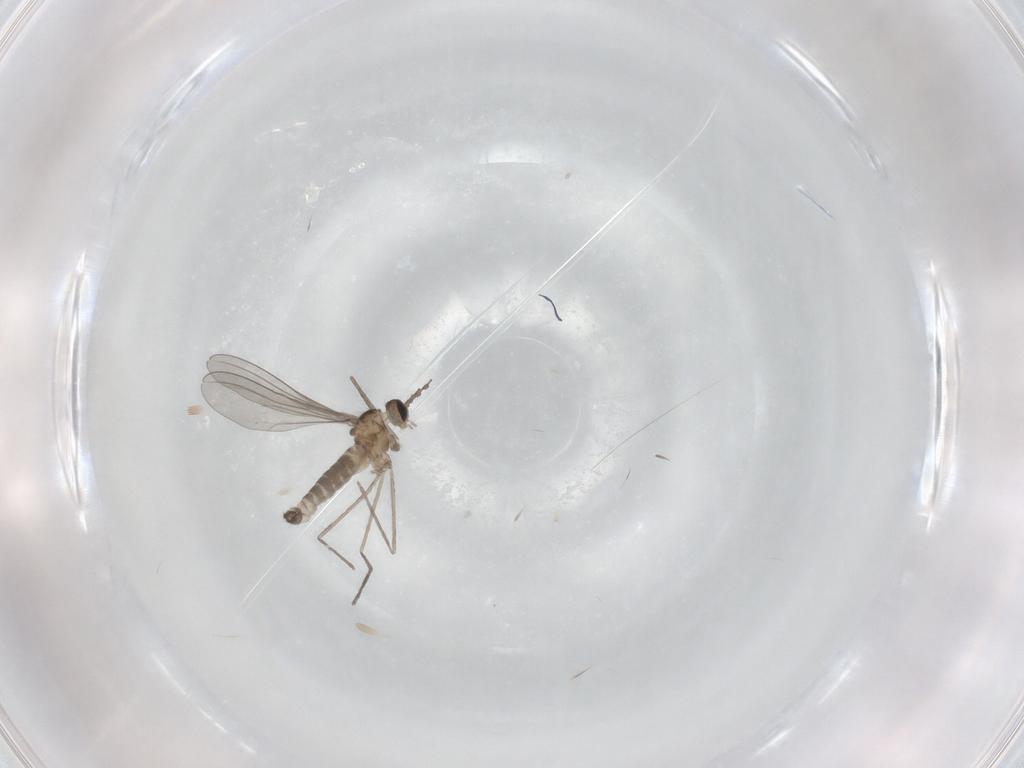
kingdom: Animalia
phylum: Arthropoda
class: Insecta
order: Diptera
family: Cecidomyiidae
